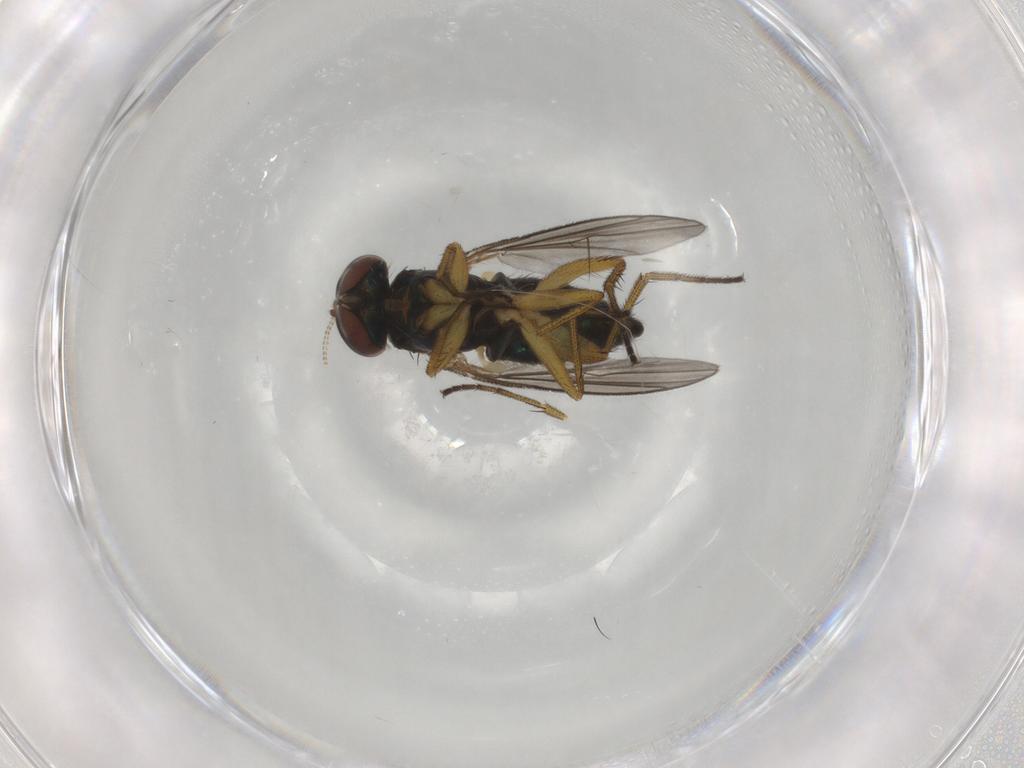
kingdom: Animalia
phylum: Arthropoda
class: Insecta
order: Diptera
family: Dolichopodidae
